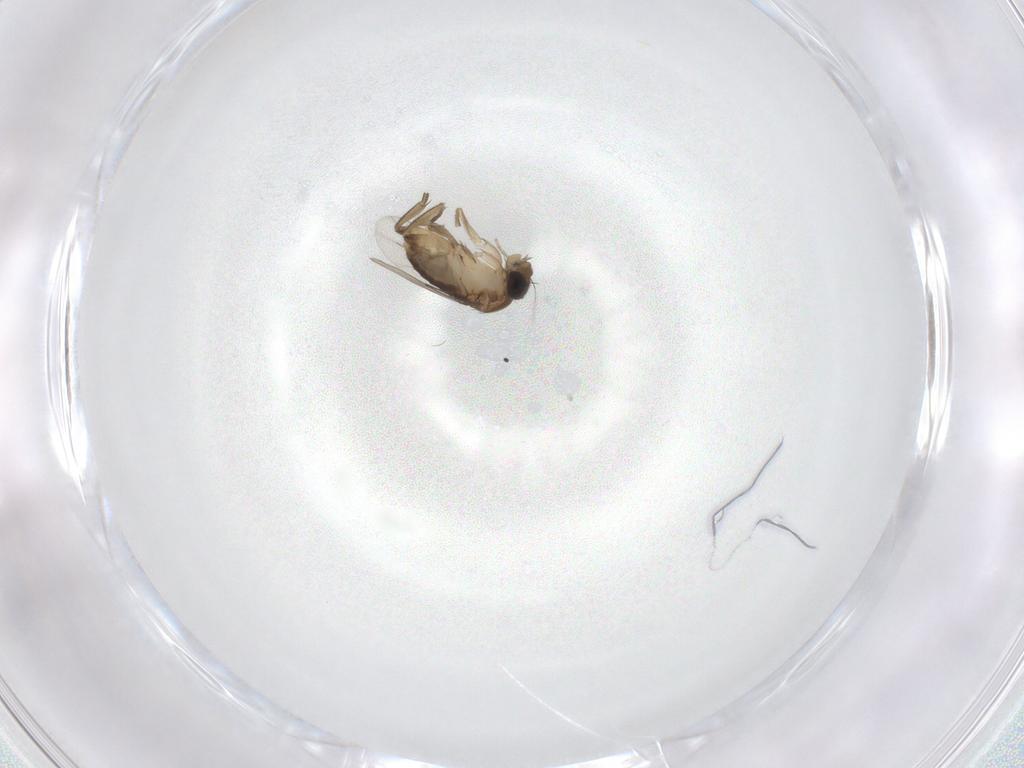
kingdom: Animalia
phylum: Arthropoda
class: Insecta
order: Diptera
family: Phoridae
